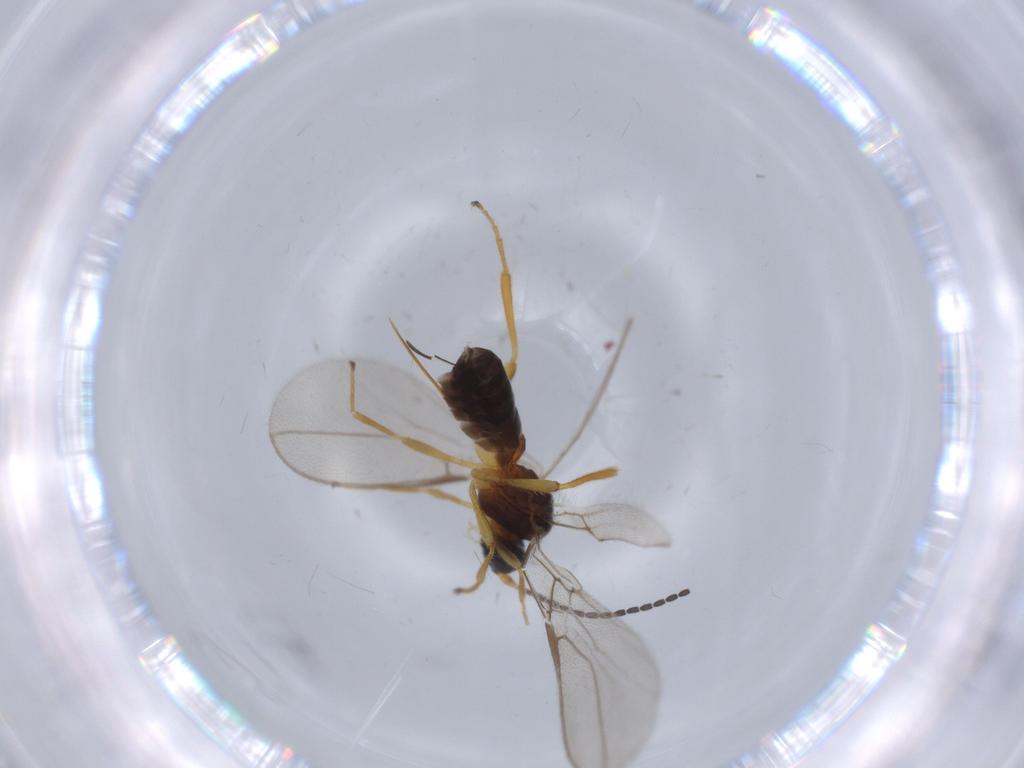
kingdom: Animalia
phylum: Arthropoda
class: Insecta
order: Hymenoptera
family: Braconidae
